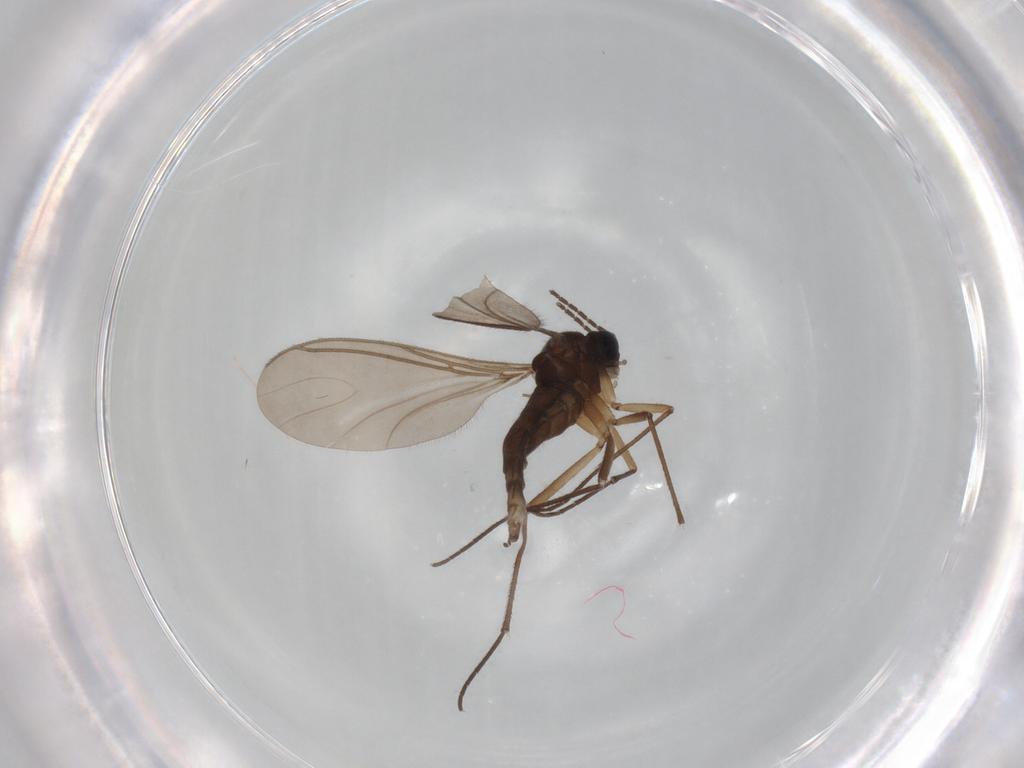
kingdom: Animalia
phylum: Arthropoda
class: Insecta
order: Diptera
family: Sciaridae
